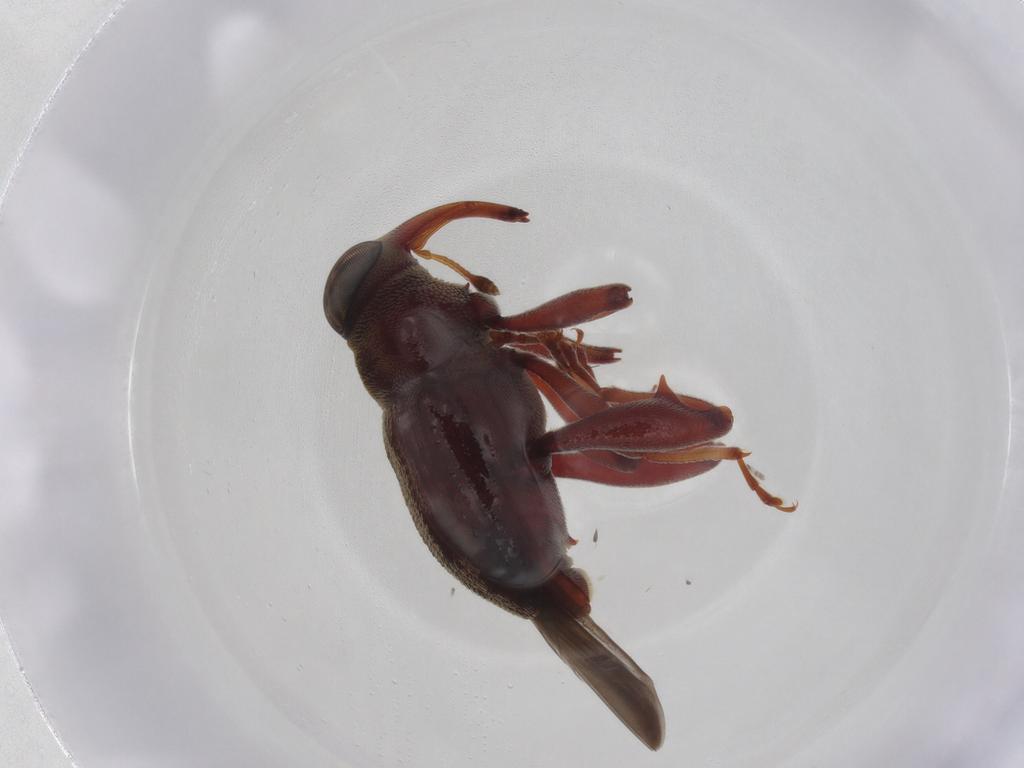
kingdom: Animalia
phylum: Arthropoda
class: Insecta
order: Coleoptera
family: Curculionidae
